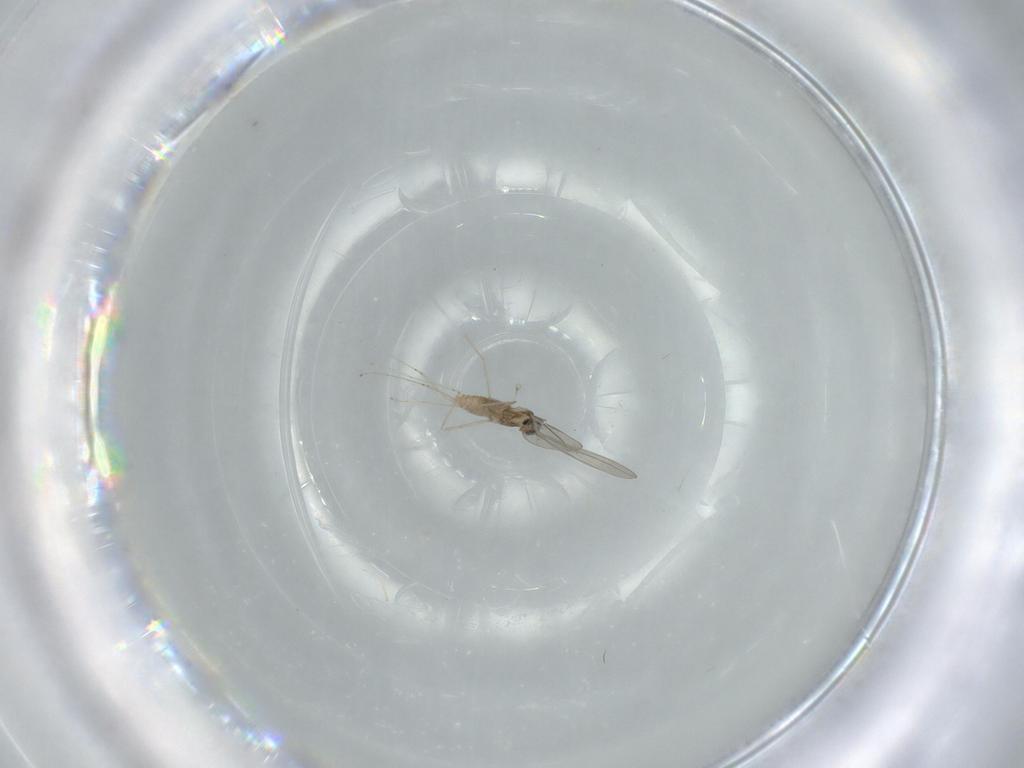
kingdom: Animalia
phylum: Arthropoda
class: Insecta
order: Diptera
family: Cecidomyiidae
